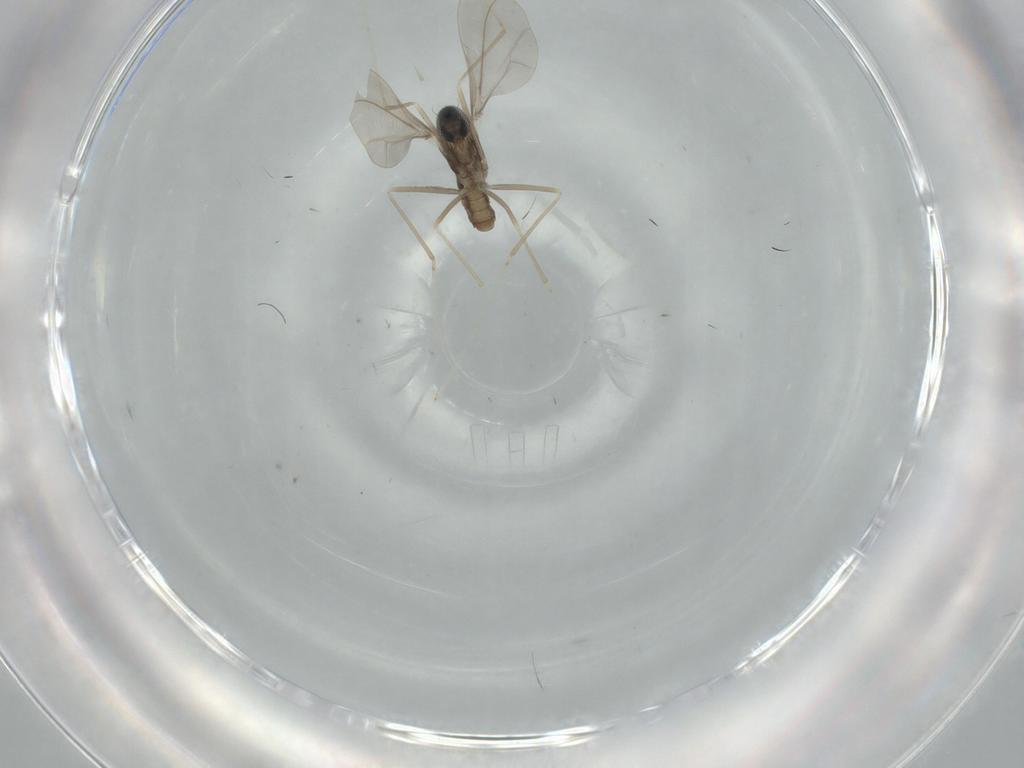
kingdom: Animalia
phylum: Arthropoda
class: Insecta
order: Diptera
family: Cecidomyiidae
